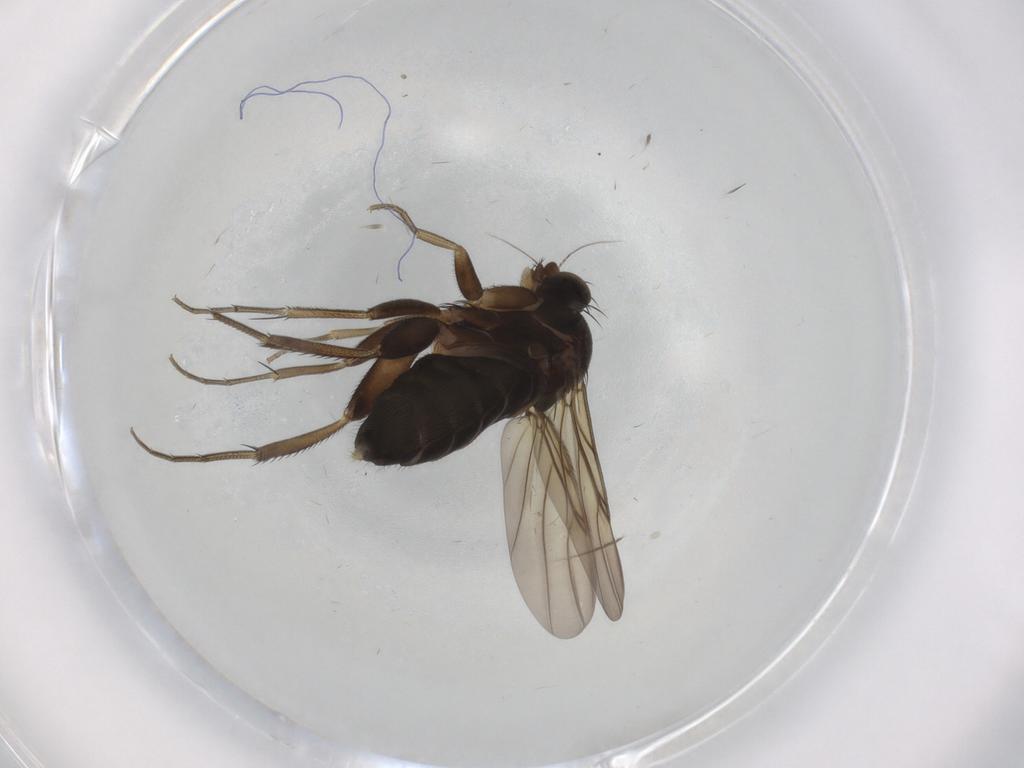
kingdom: Animalia
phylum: Arthropoda
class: Insecta
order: Diptera
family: Phoridae
